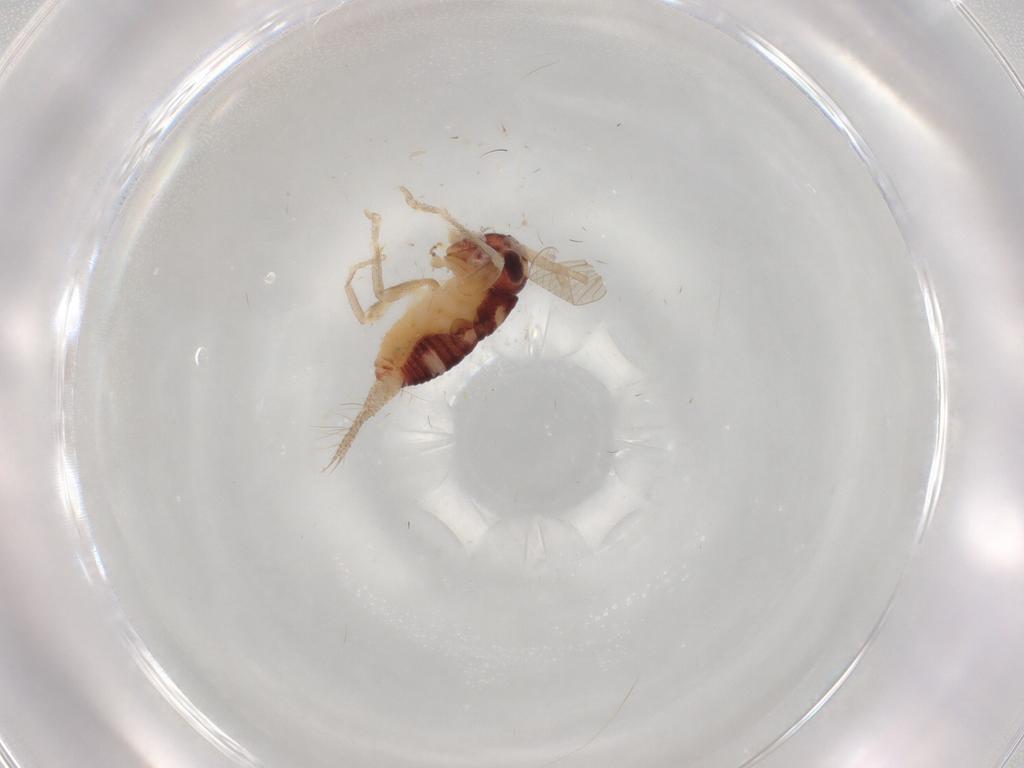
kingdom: Animalia
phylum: Arthropoda
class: Insecta
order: Orthoptera
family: Trigonidiidae
